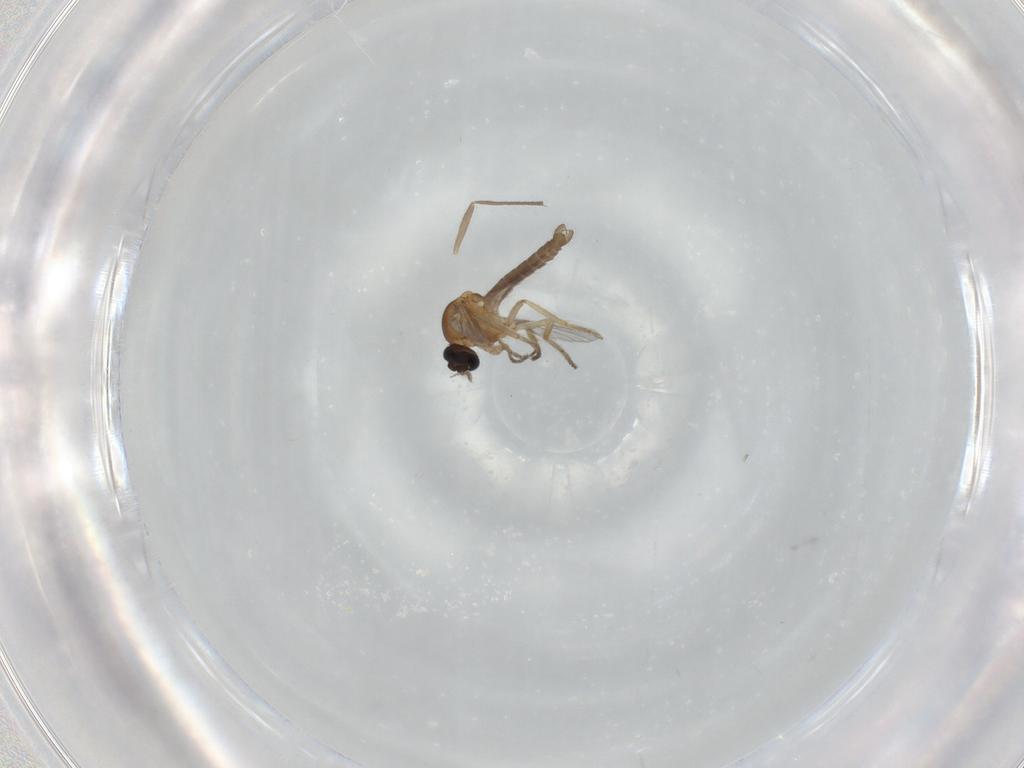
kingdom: Animalia
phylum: Arthropoda
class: Insecta
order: Diptera
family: Ceratopogonidae
